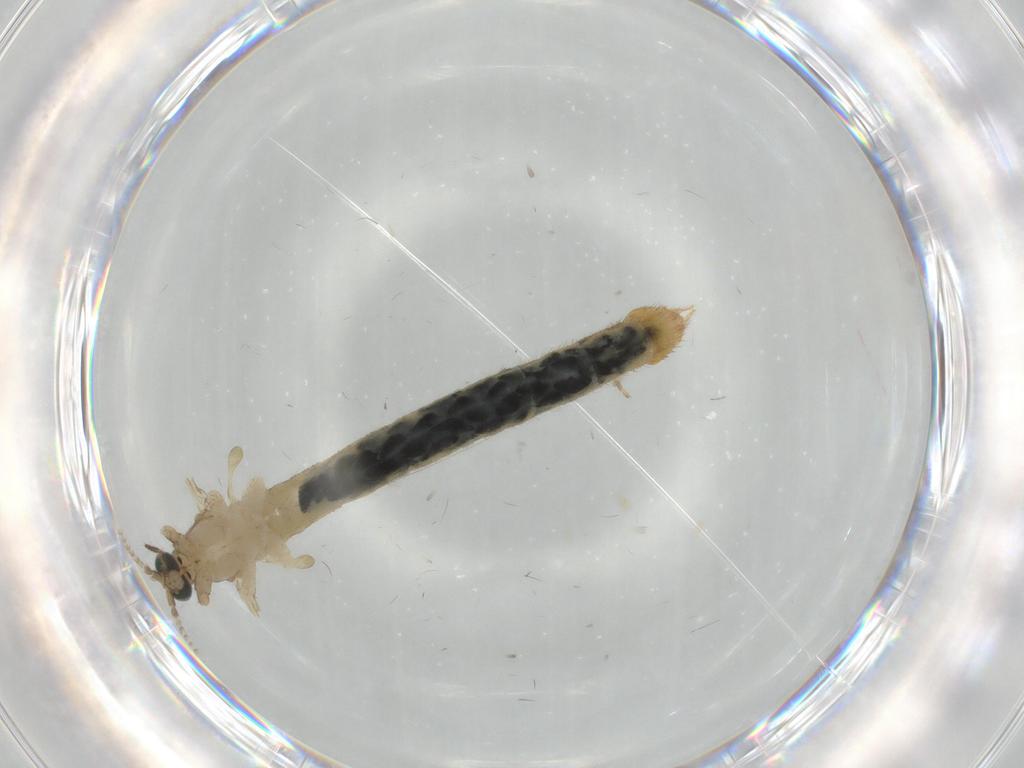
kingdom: Animalia
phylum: Arthropoda
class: Insecta
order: Diptera
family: Limoniidae
